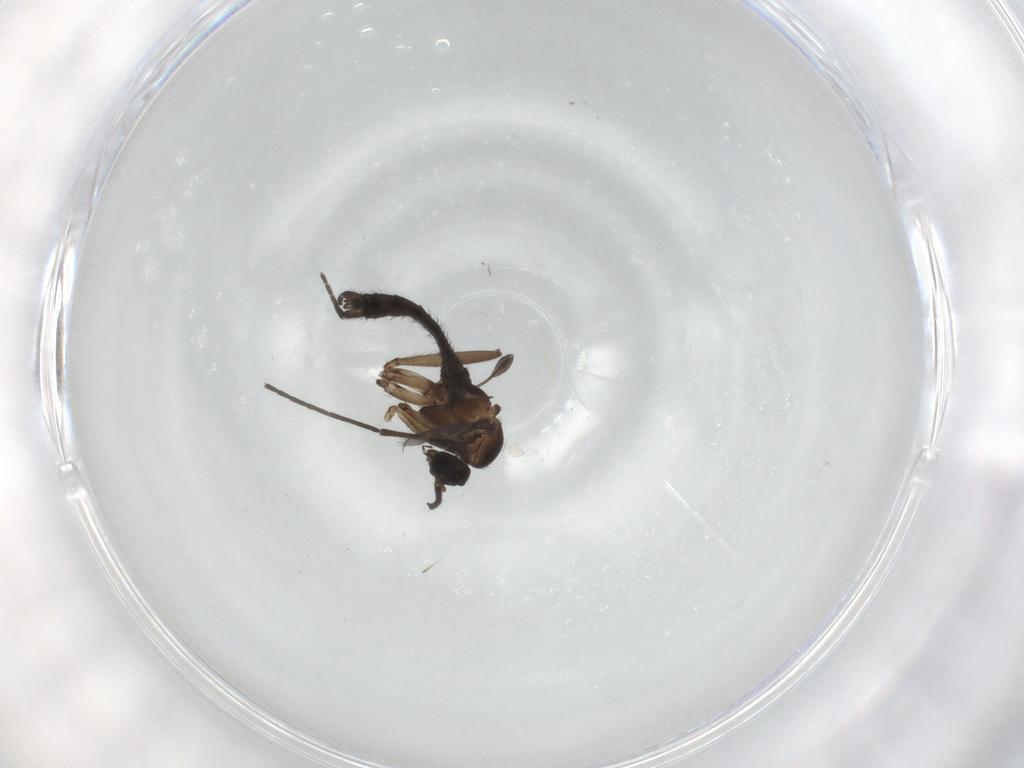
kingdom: Animalia
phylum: Arthropoda
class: Insecta
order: Diptera
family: Sciaridae
